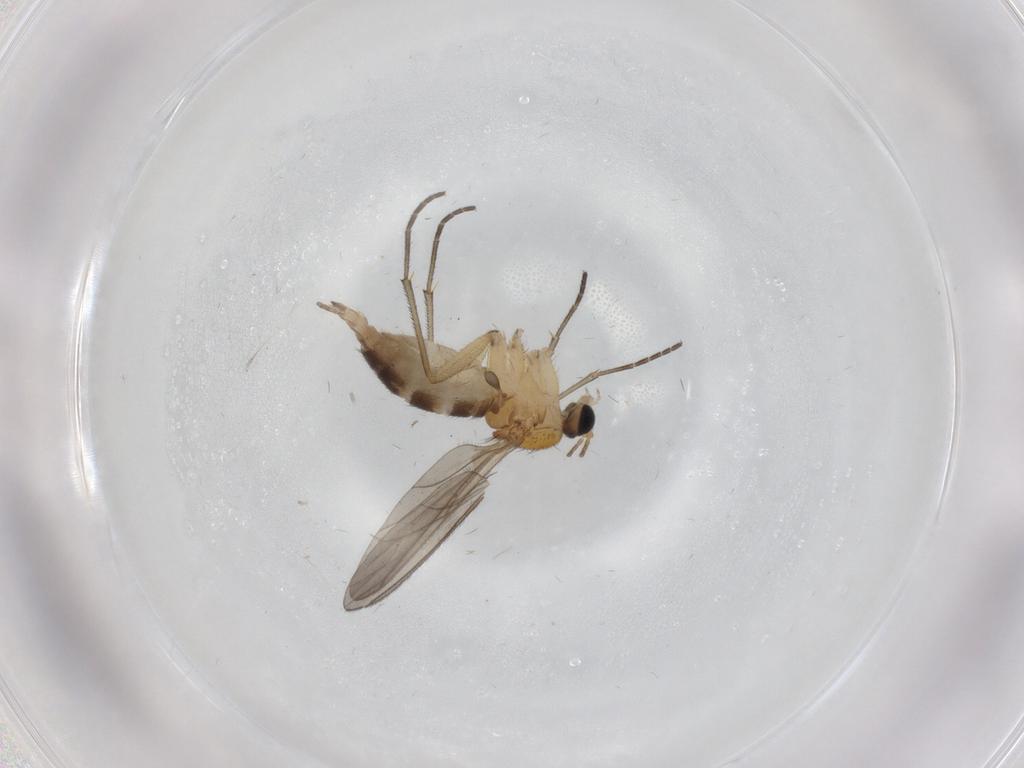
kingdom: Animalia
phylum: Arthropoda
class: Insecta
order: Diptera
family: Sciaridae
